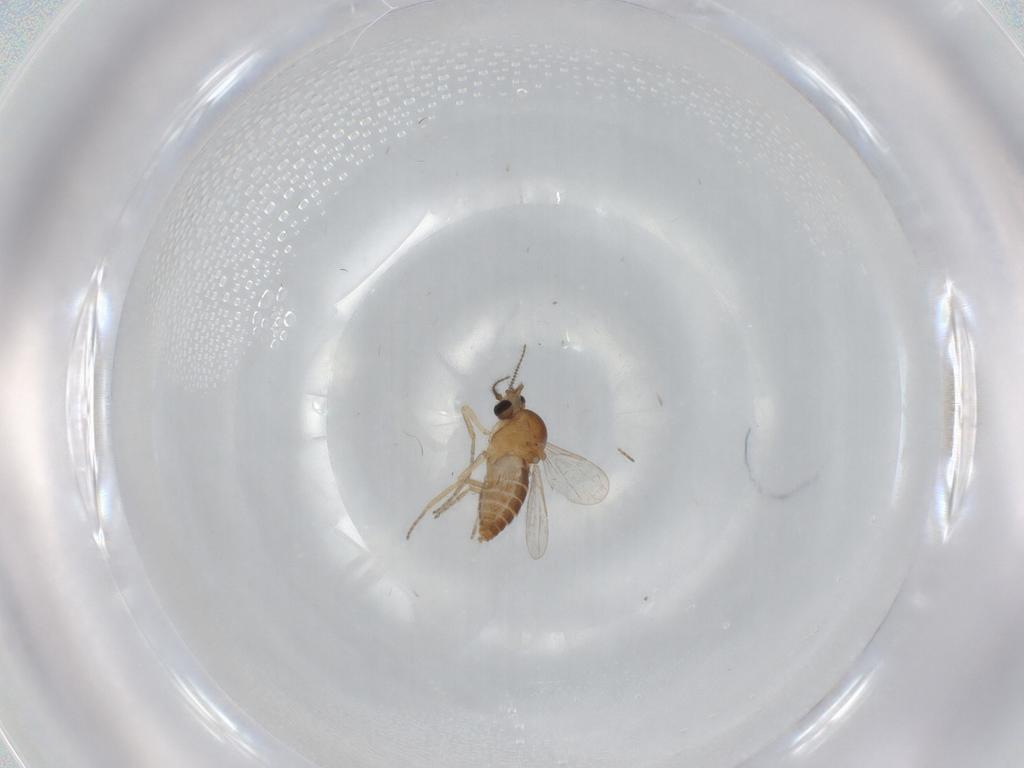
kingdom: Animalia
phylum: Arthropoda
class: Insecta
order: Diptera
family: Ceratopogonidae
